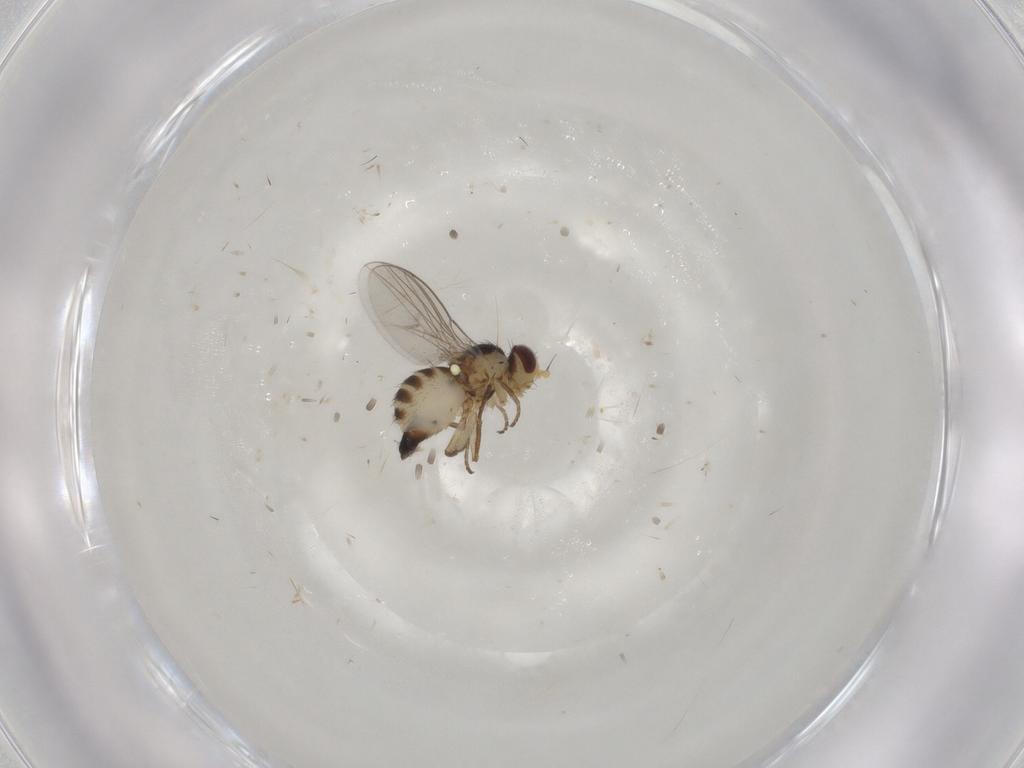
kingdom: Animalia
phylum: Arthropoda
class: Insecta
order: Diptera
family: Agromyzidae
